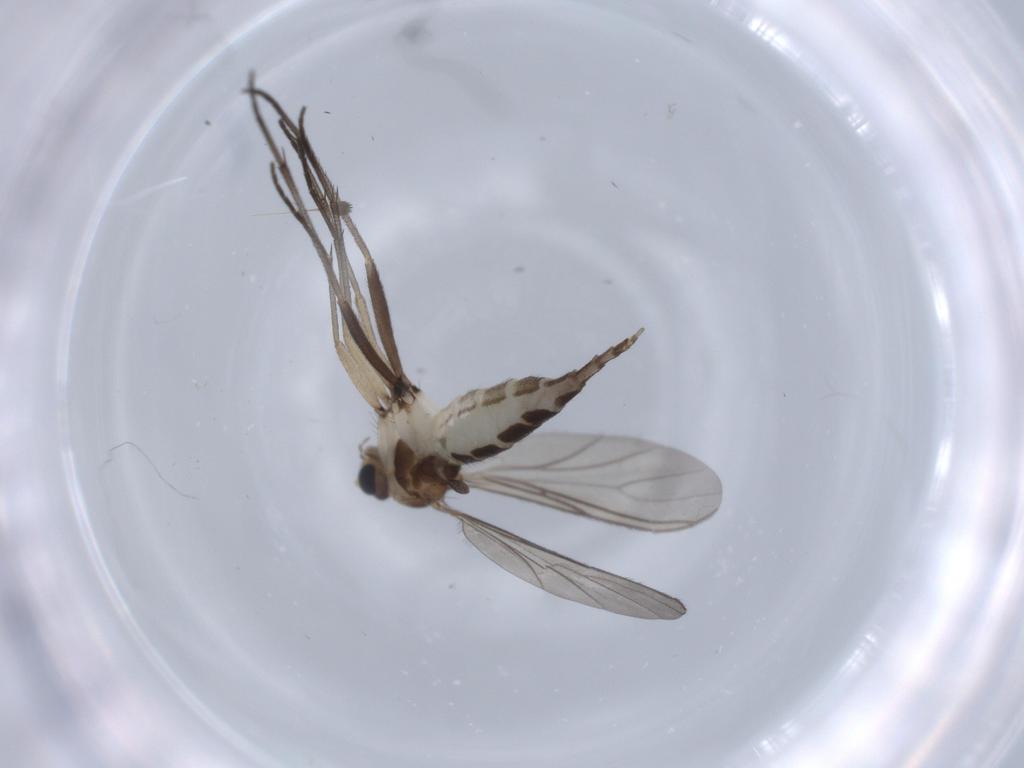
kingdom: Animalia
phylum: Arthropoda
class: Insecta
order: Diptera
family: Sciaridae
